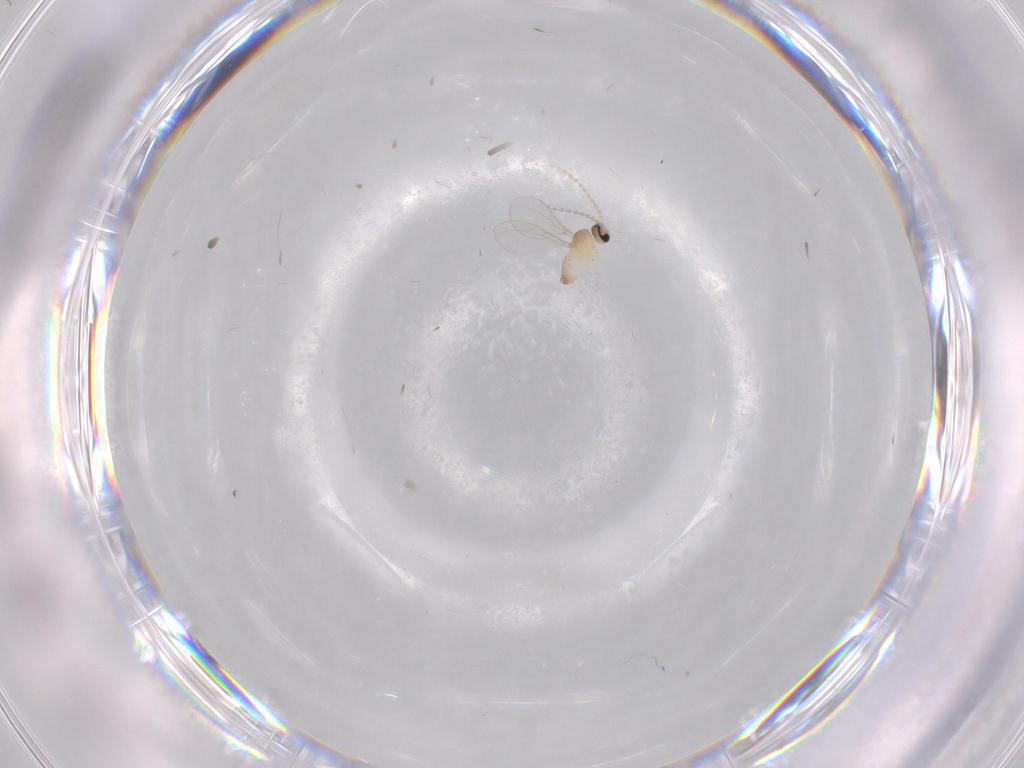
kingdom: Animalia
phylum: Arthropoda
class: Insecta
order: Diptera
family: Cecidomyiidae
